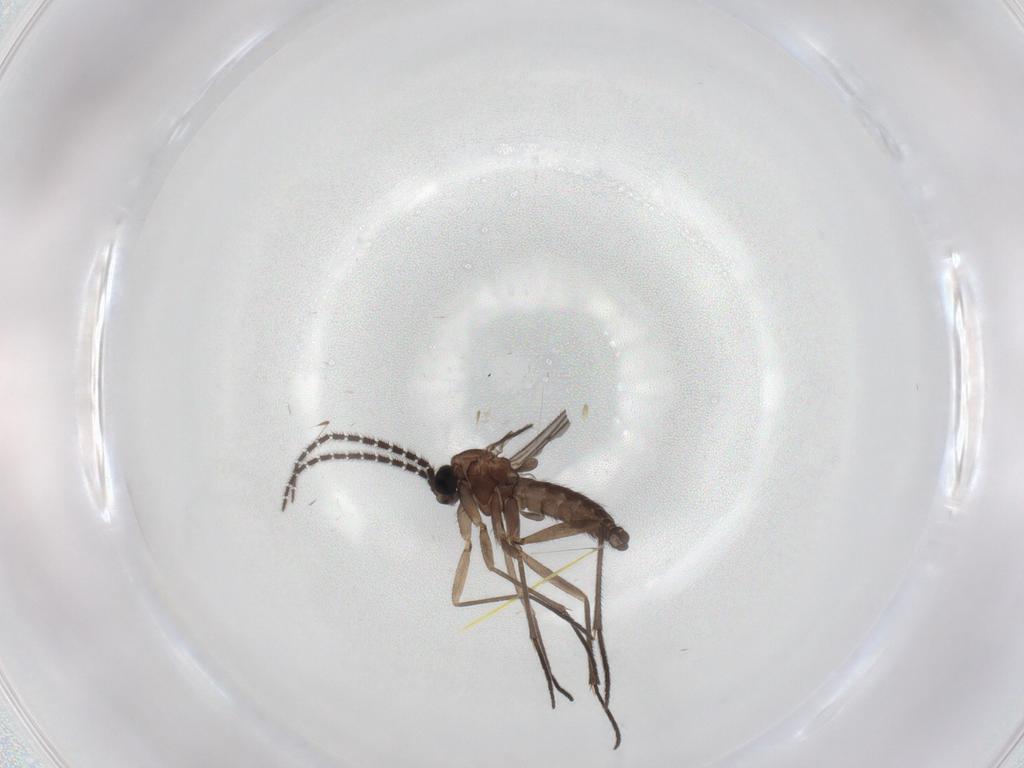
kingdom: Animalia
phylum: Arthropoda
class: Insecta
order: Diptera
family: Sciaridae
